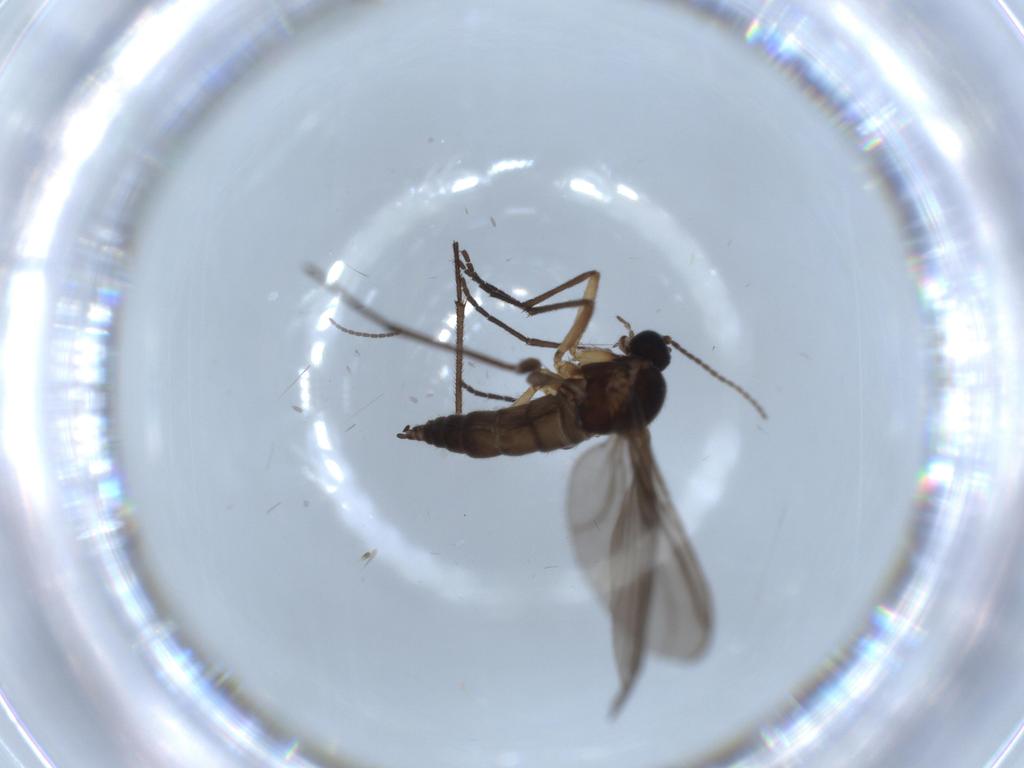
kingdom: Animalia
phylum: Arthropoda
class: Insecta
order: Diptera
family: Sciaridae
